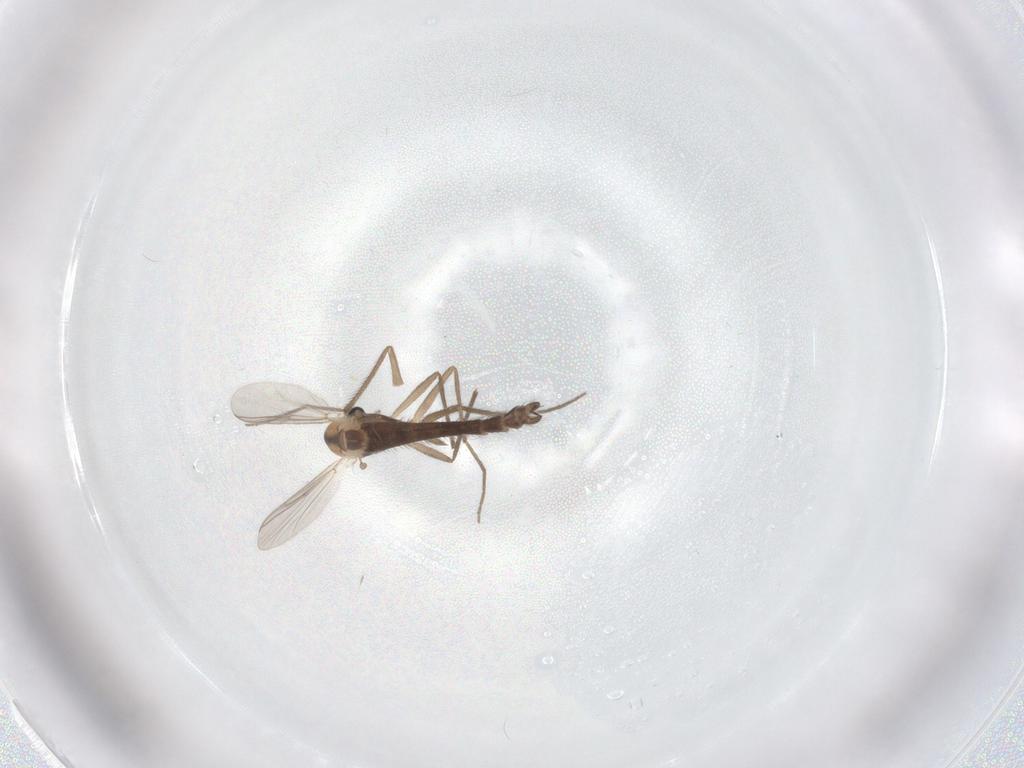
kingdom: Animalia
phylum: Arthropoda
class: Insecta
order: Diptera
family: Chironomidae
